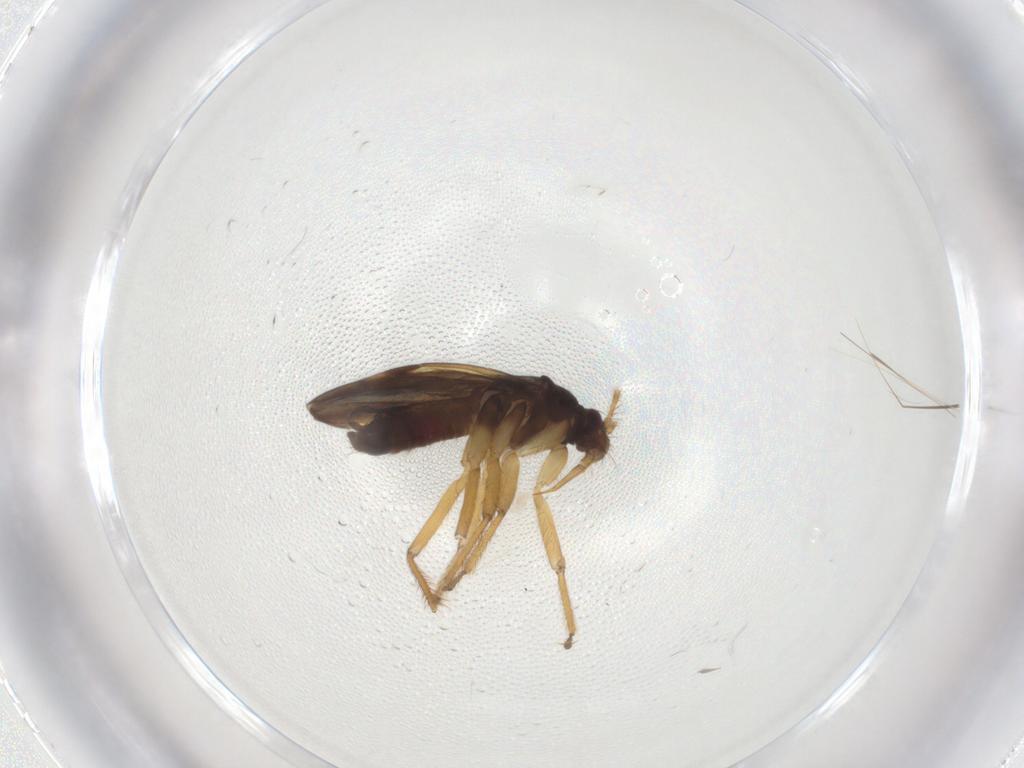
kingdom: Animalia
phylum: Arthropoda
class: Insecta
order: Hemiptera
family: Ceratocombidae
